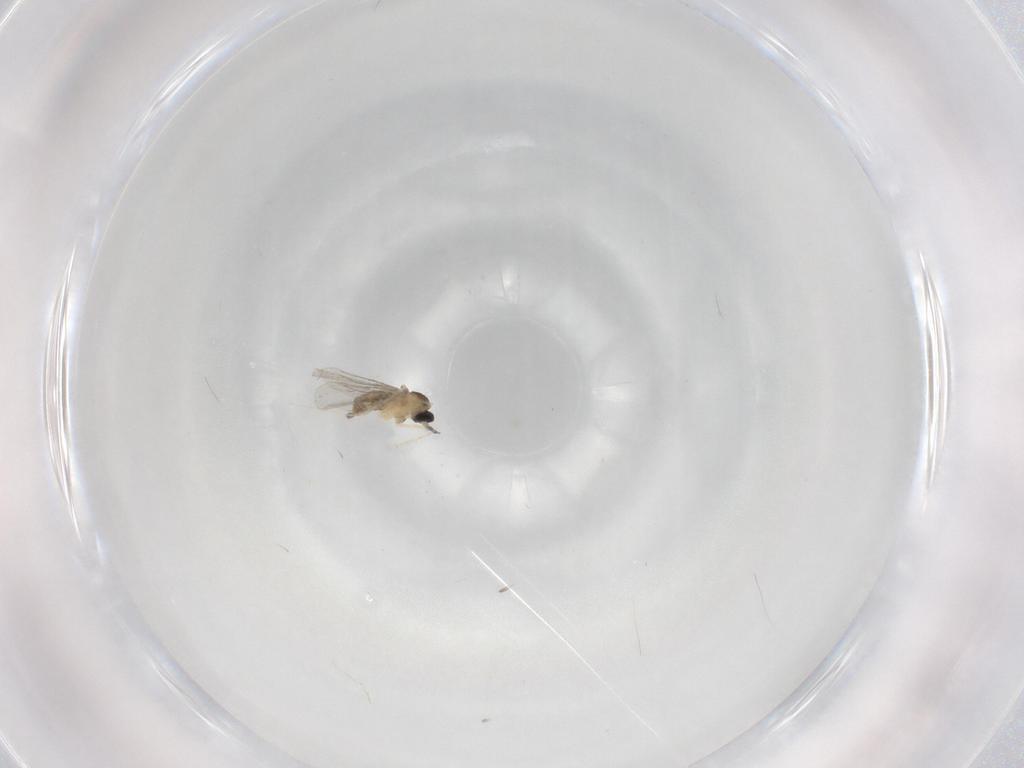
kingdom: Animalia
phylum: Arthropoda
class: Insecta
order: Diptera
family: Cecidomyiidae
